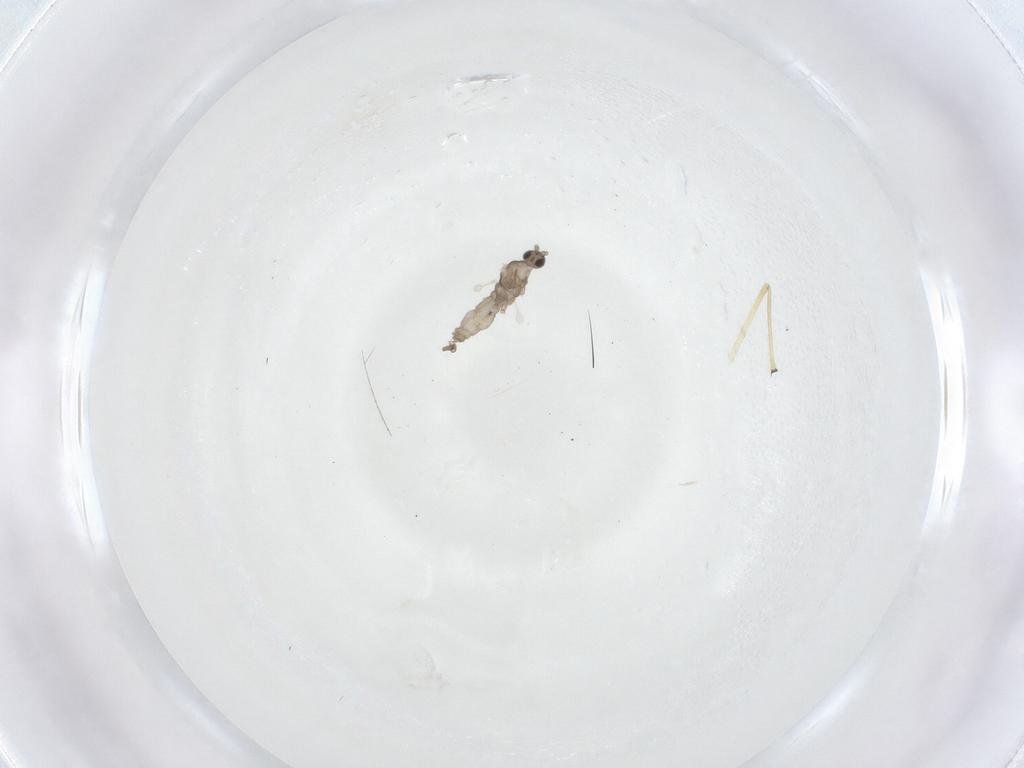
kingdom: Animalia
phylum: Arthropoda
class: Insecta
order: Diptera
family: Cecidomyiidae
